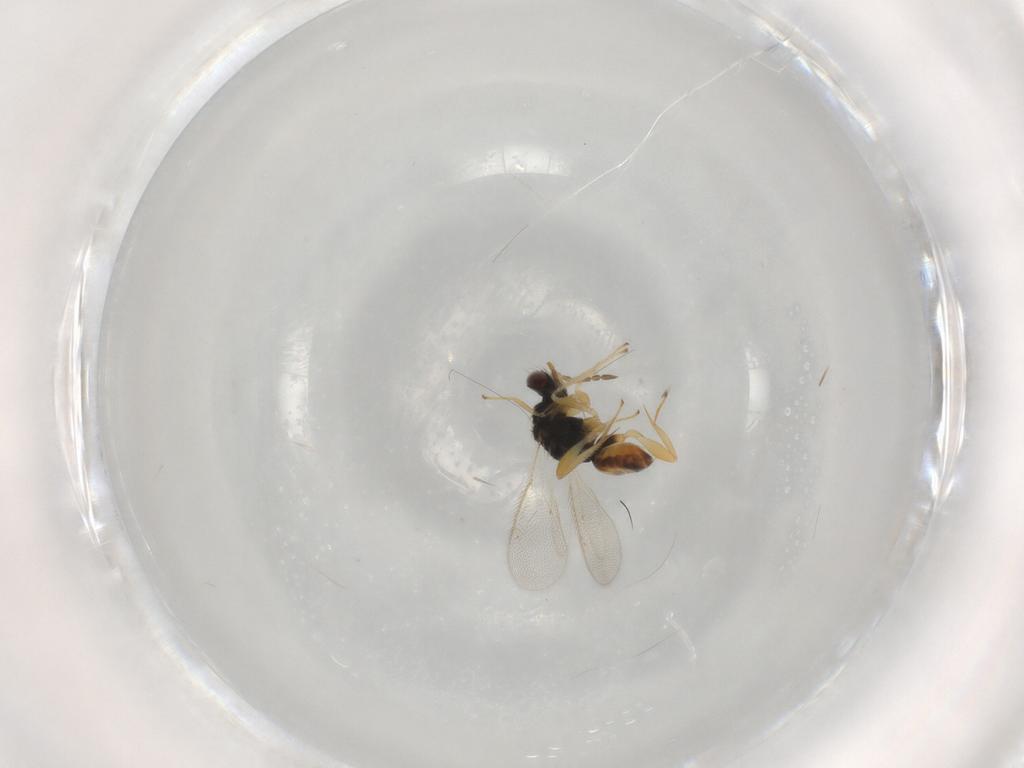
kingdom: Animalia
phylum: Arthropoda
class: Insecta
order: Hymenoptera
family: Eulophidae
